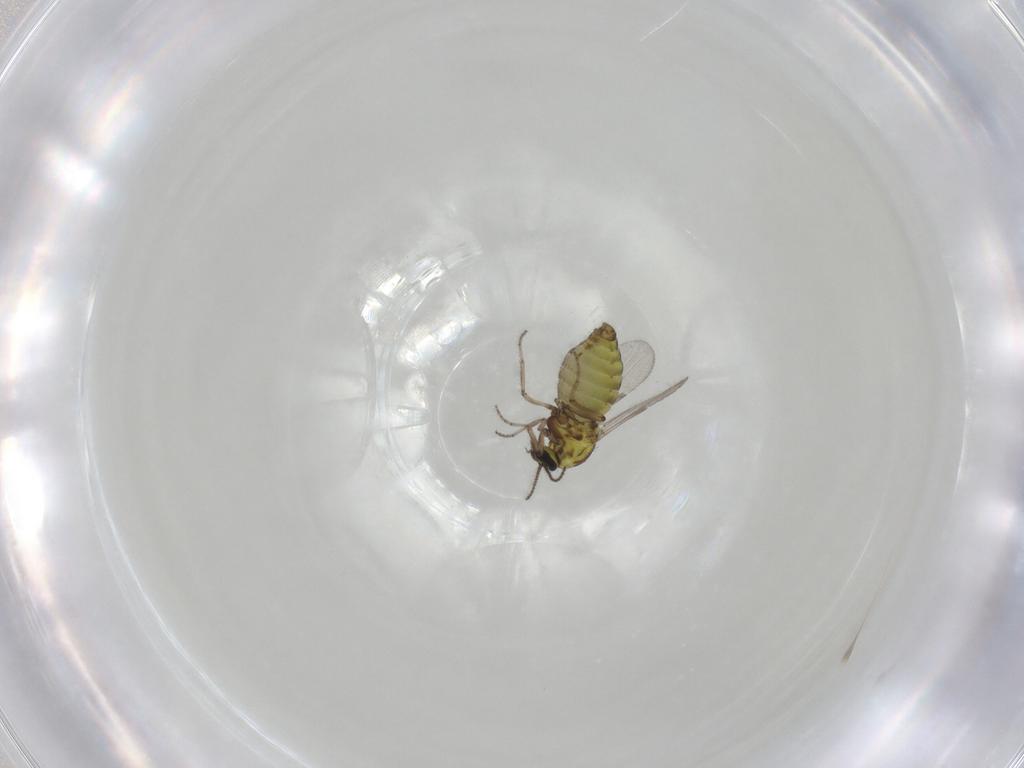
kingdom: Animalia
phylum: Arthropoda
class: Insecta
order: Diptera
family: Ceratopogonidae
